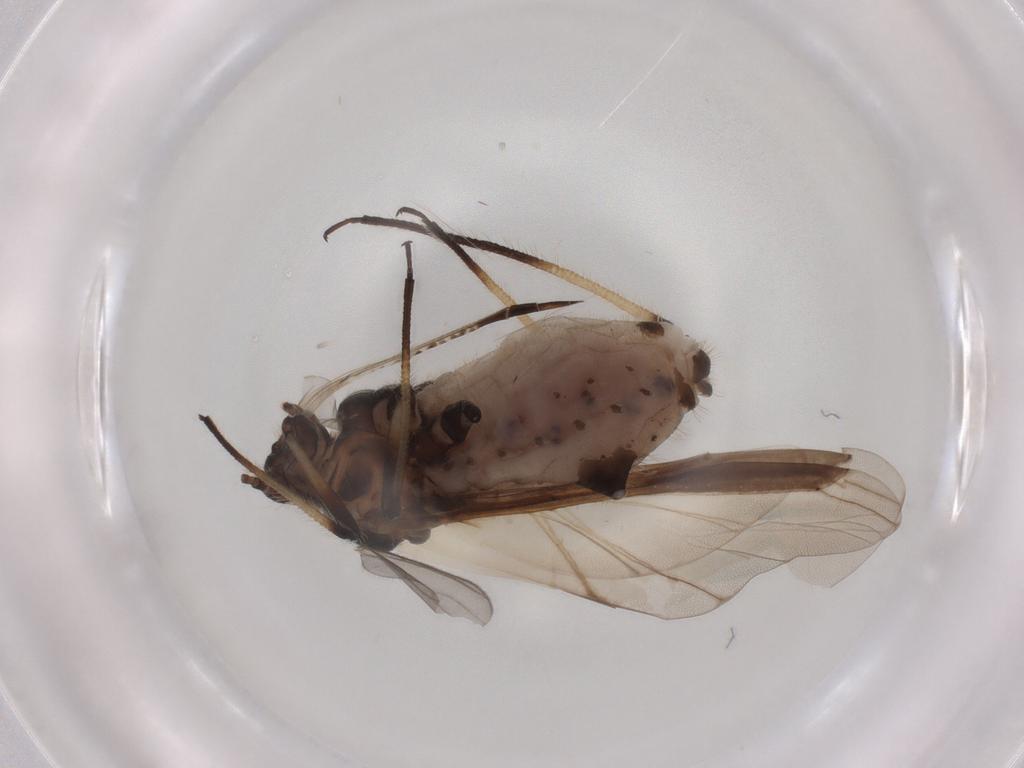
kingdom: Animalia
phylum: Arthropoda
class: Insecta
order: Hemiptera
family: Aphididae
